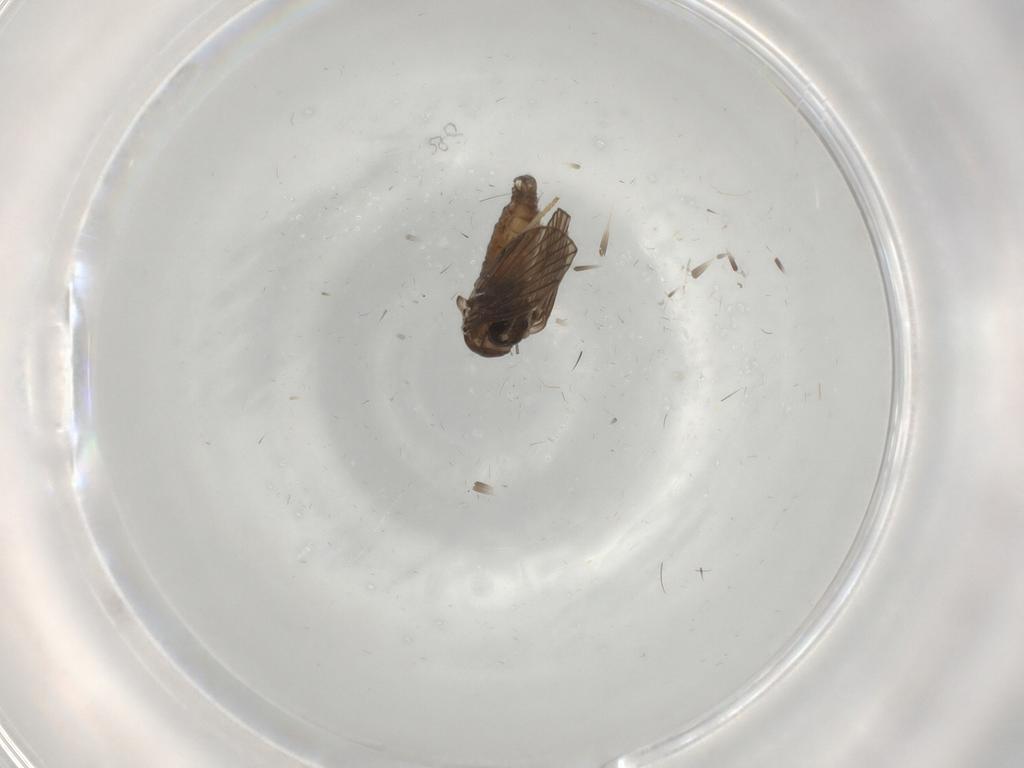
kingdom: Animalia
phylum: Arthropoda
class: Insecta
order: Diptera
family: Psychodidae
